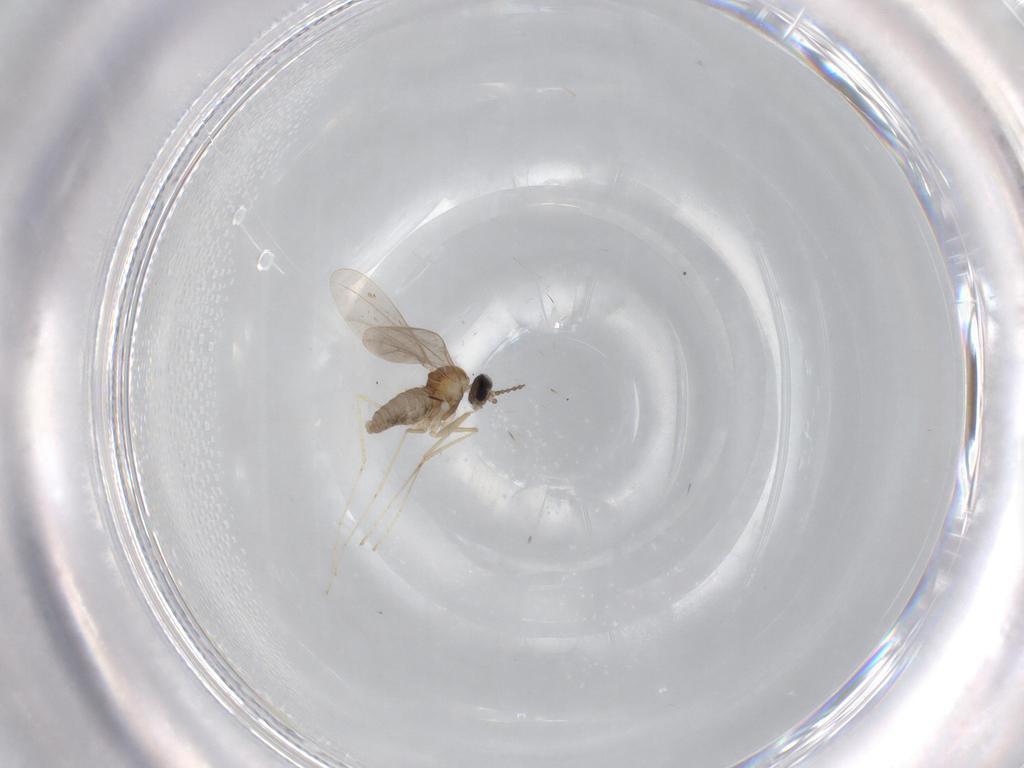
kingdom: Animalia
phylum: Arthropoda
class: Insecta
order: Diptera
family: Cecidomyiidae
